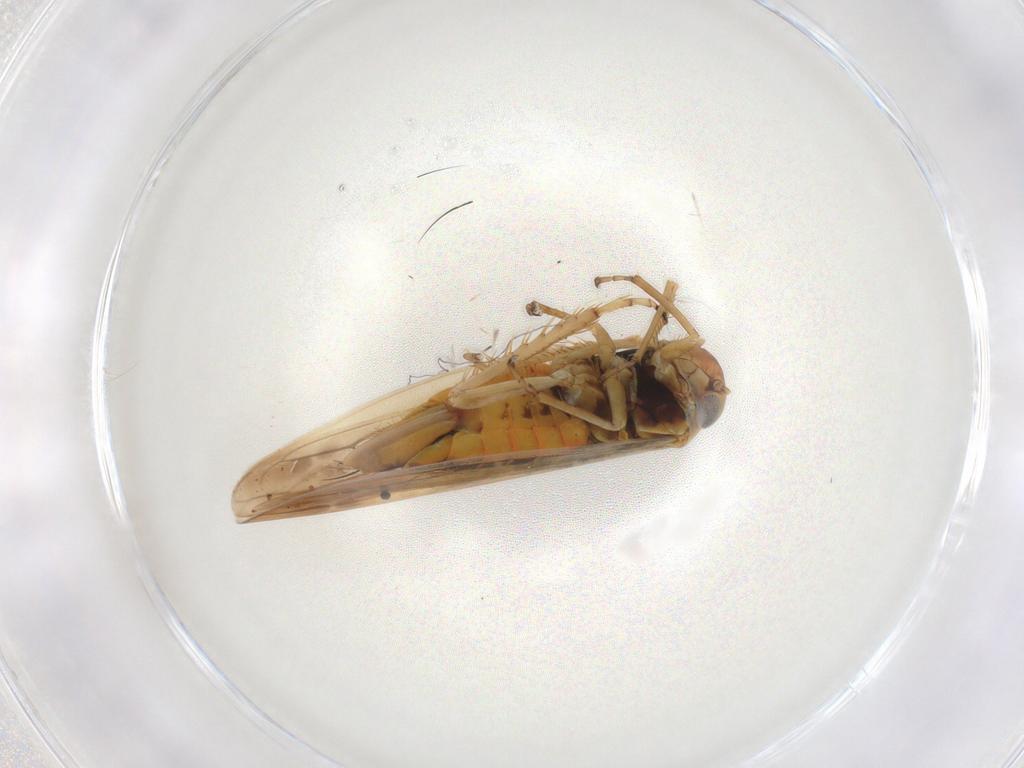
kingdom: Animalia
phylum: Arthropoda
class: Insecta
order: Hemiptera
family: Cicadellidae
